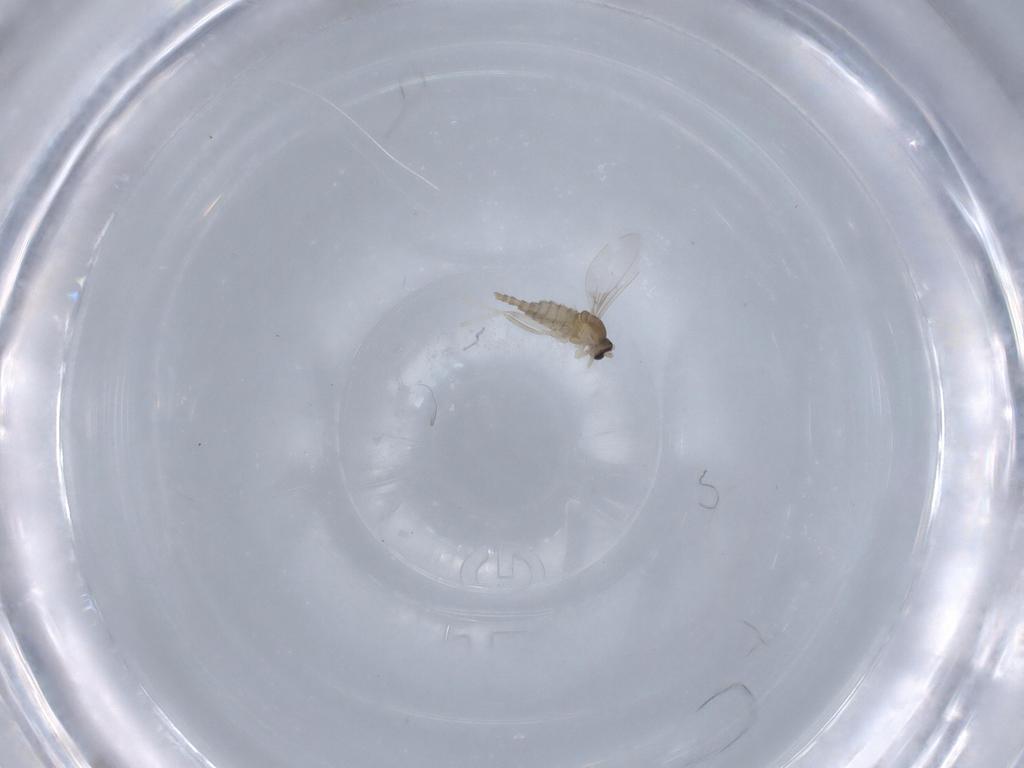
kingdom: Animalia
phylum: Arthropoda
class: Insecta
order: Diptera
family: Cecidomyiidae
